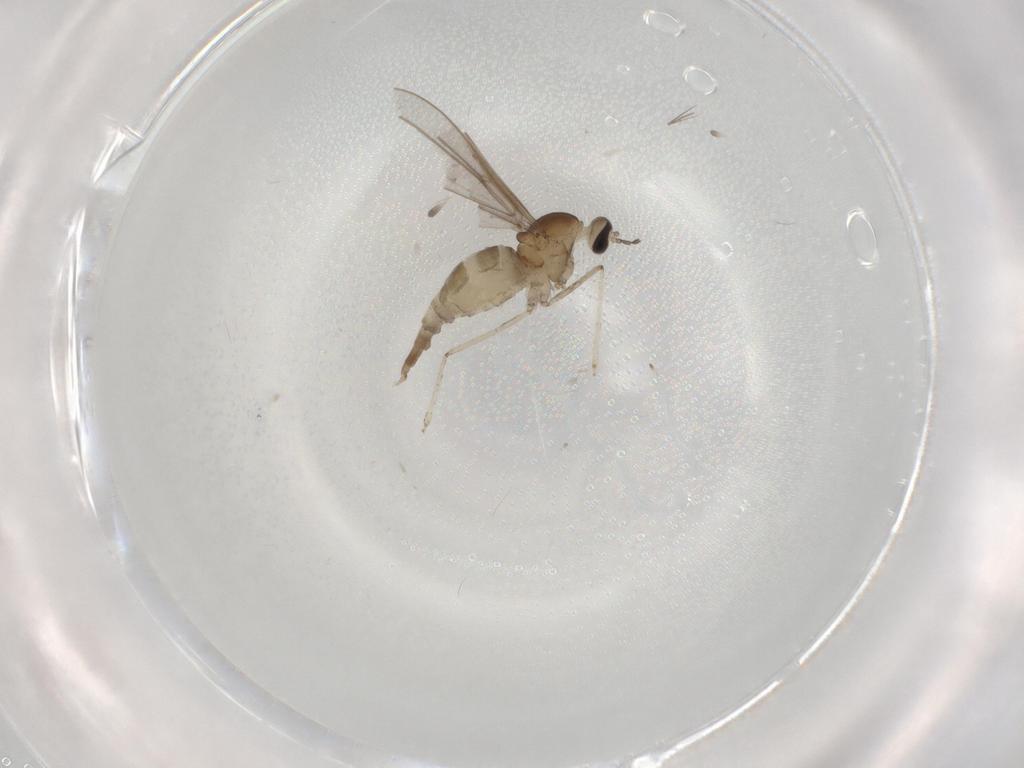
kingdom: Animalia
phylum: Arthropoda
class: Insecta
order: Diptera
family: Cecidomyiidae
